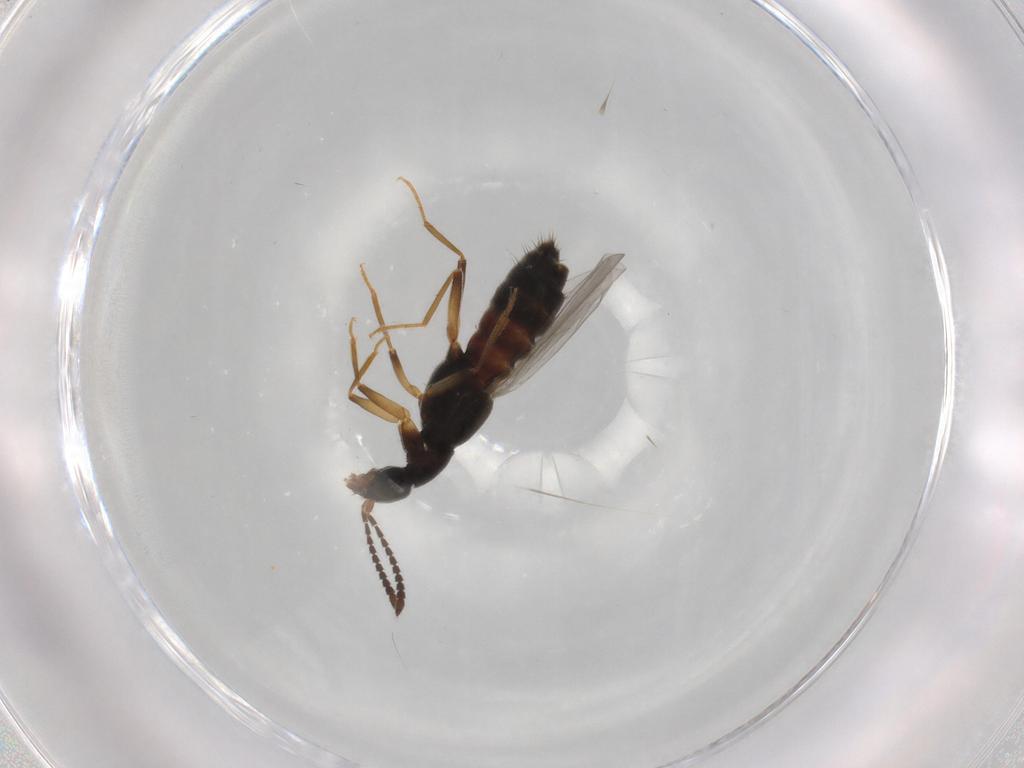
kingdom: Animalia
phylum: Arthropoda
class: Insecta
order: Coleoptera
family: Staphylinidae
